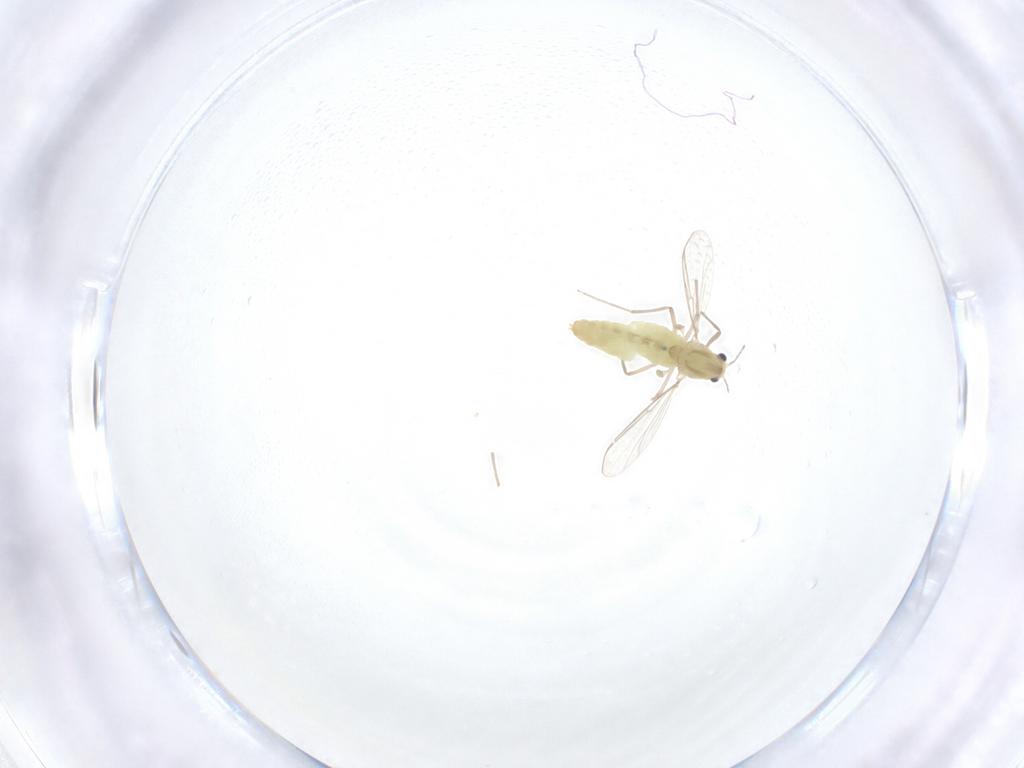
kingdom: Animalia
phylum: Arthropoda
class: Insecta
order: Diptera
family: Chironomidae
